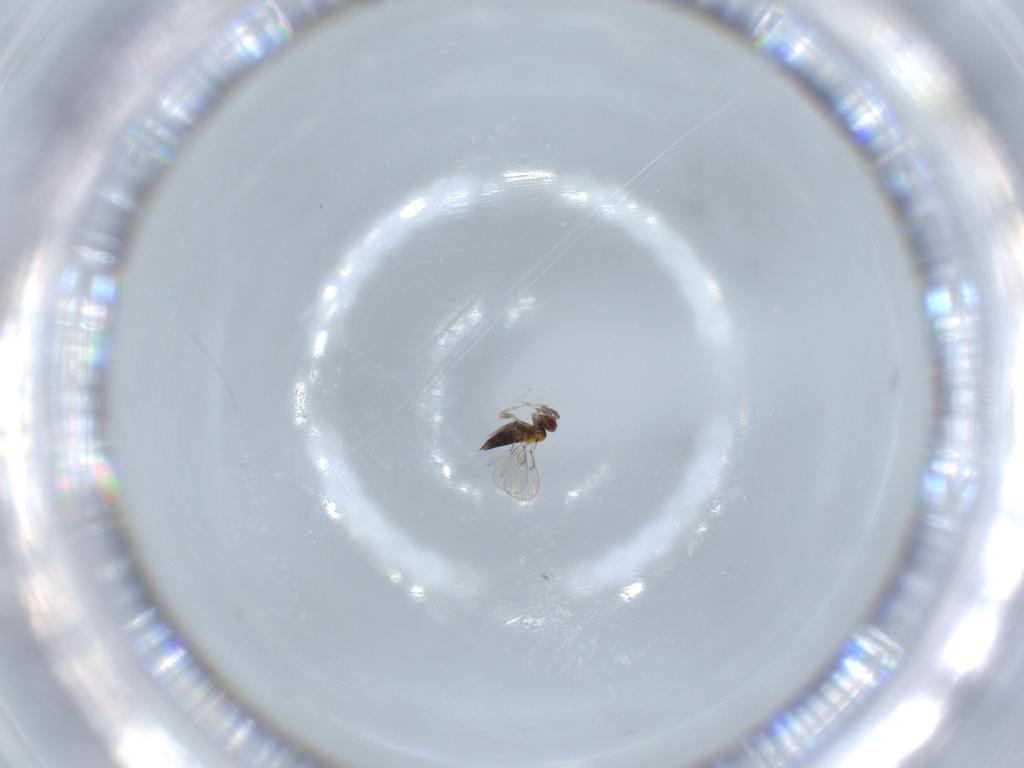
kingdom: Animalia
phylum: Arthropoda
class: Insecta
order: Hymenoptera
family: Trichogrammatidae
